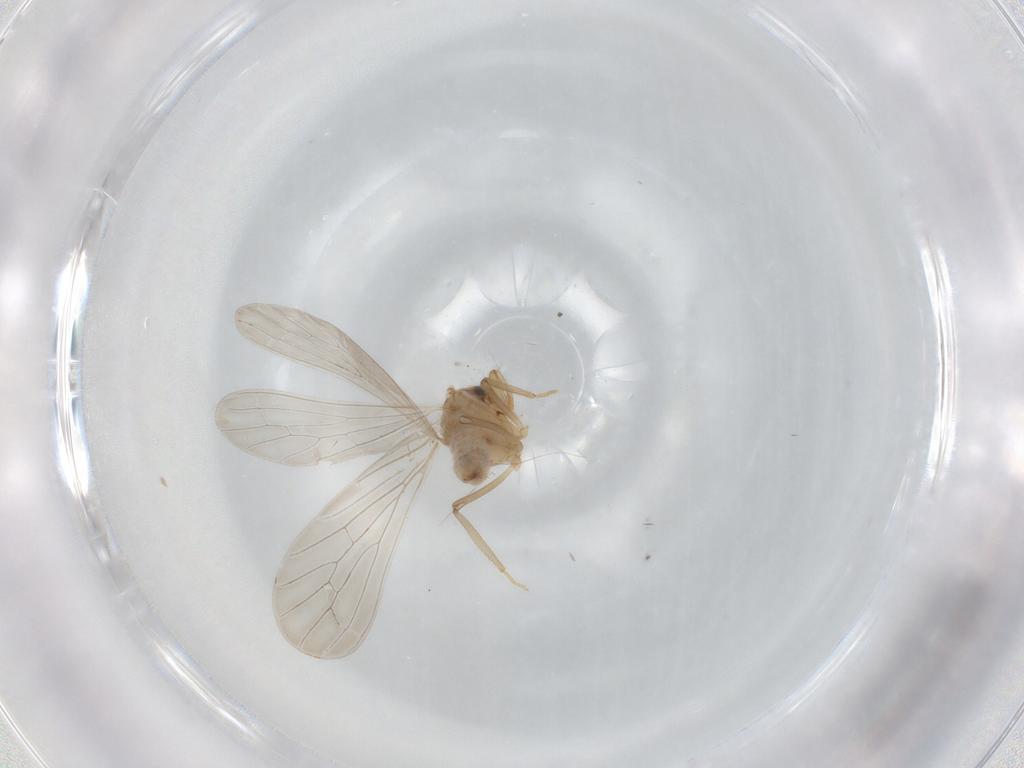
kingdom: Animalia
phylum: Arthropoda
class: Insecta
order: Neuroptera
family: Coniopterygidae
